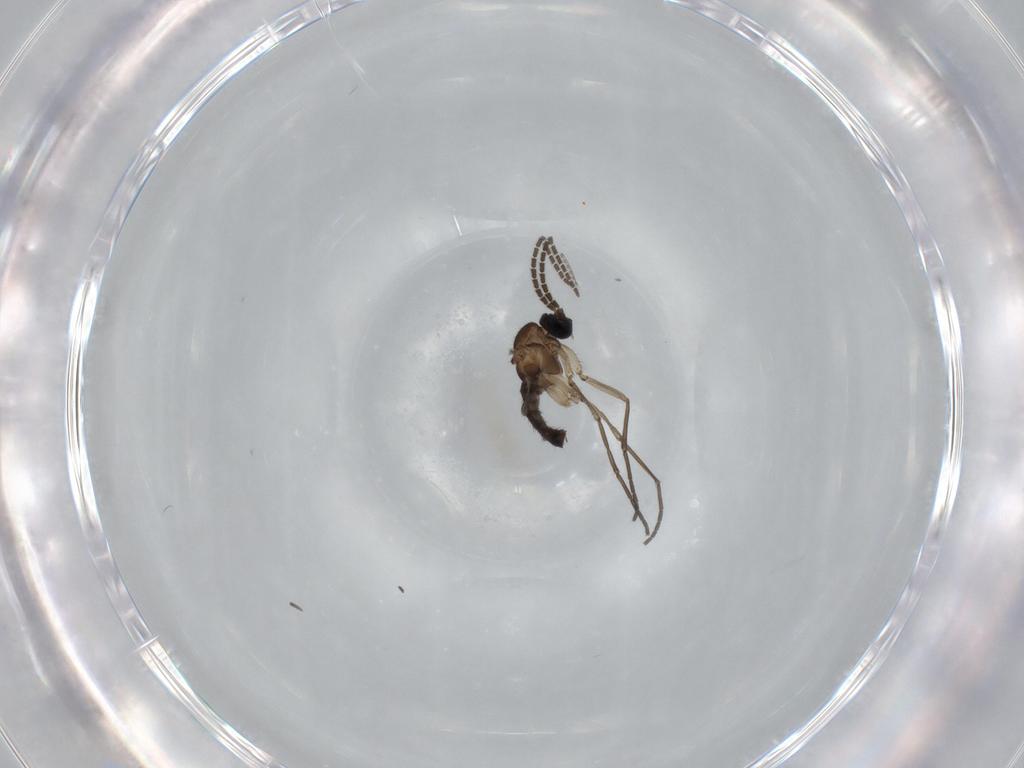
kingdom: Animalia
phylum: Arthropoda
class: Insecta
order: Diptera
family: Sciaridae
